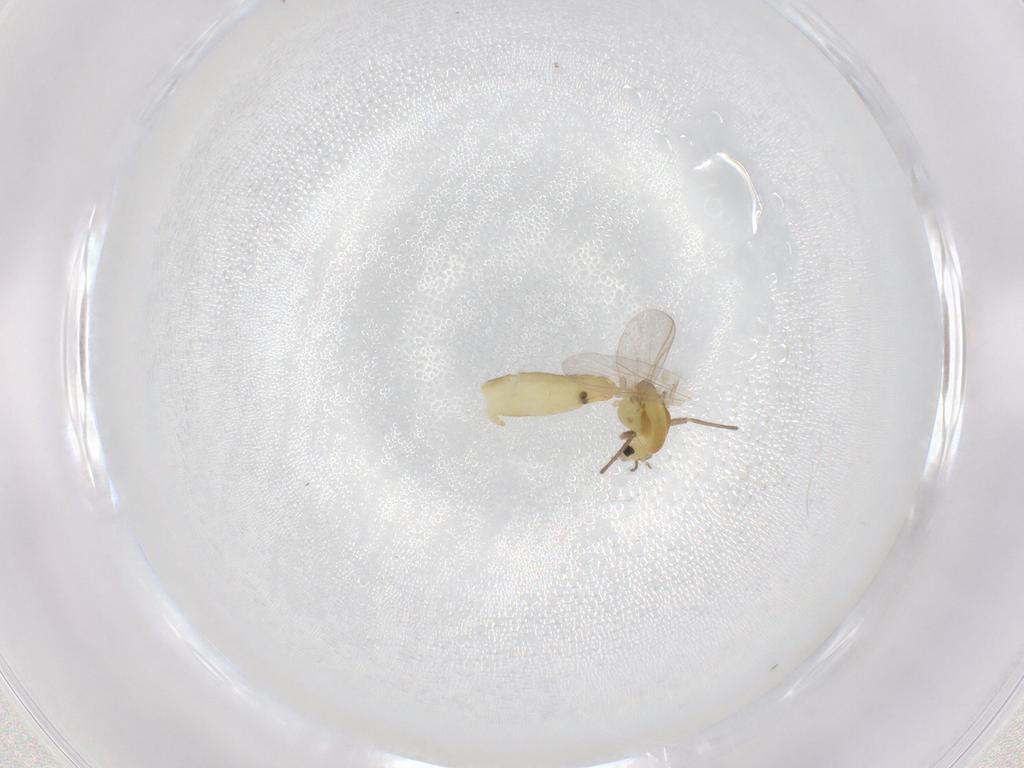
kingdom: Animalia
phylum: Arthropoda
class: Insecta
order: Diptera
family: Chironomidae
